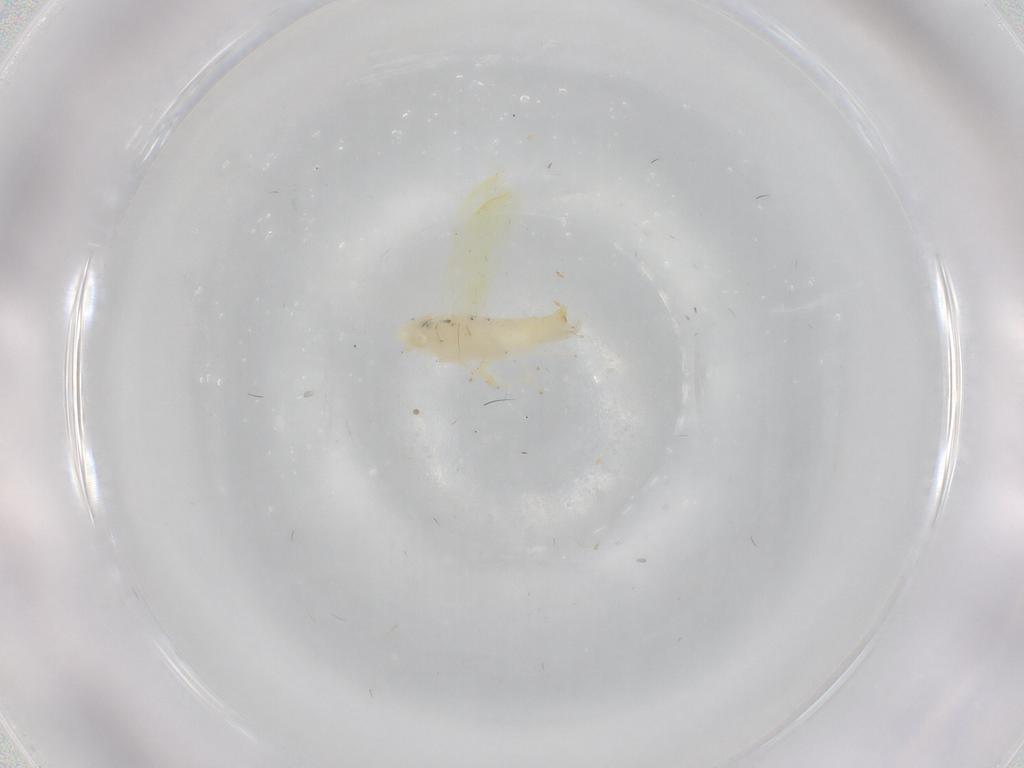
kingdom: Animalia
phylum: Arthropoda
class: Insecta
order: Hemiptera
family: Cicadellidae
